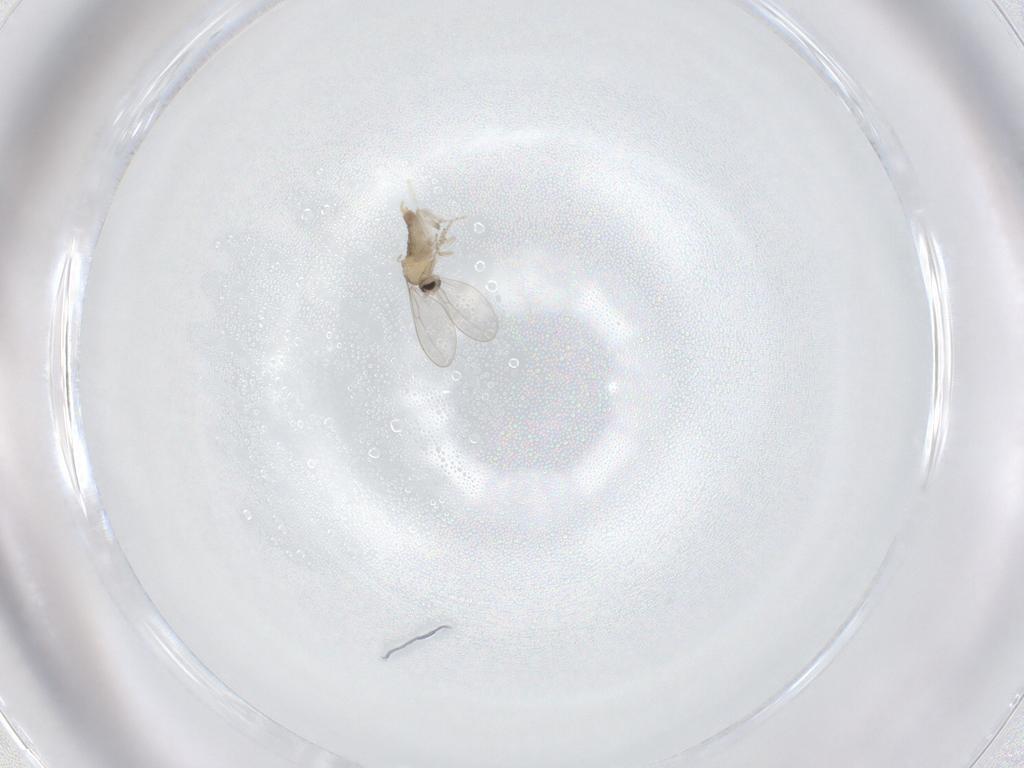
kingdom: Animalia
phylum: Arthropoda
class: Insecta
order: Diptera
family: Cecidomyiidae
